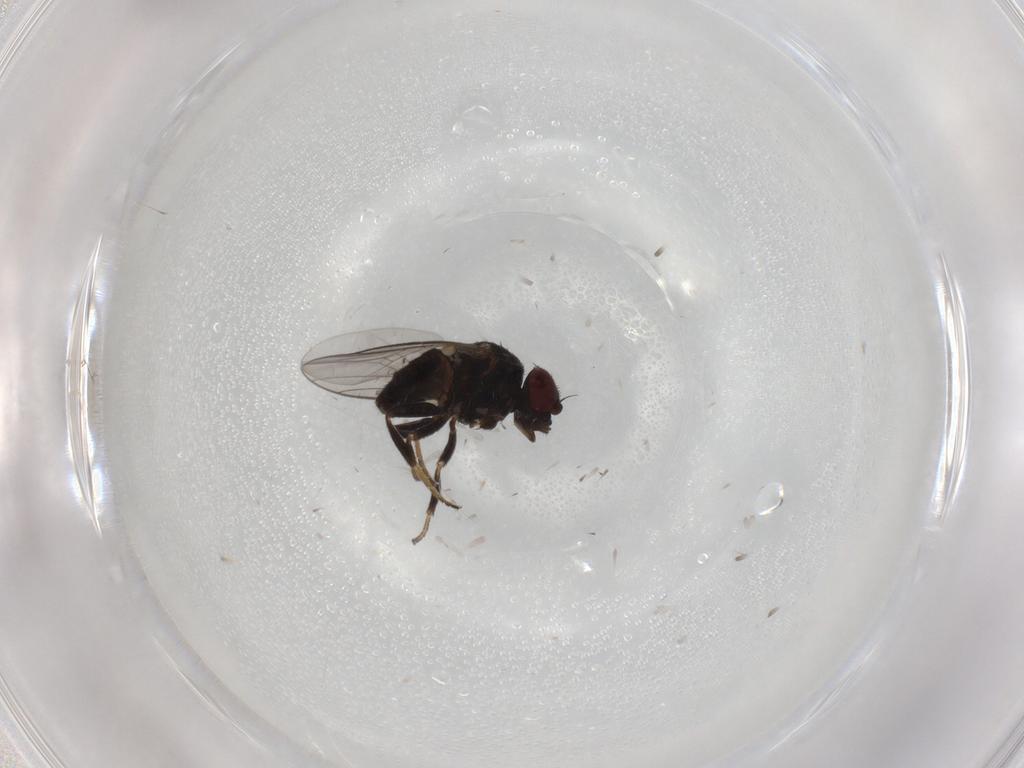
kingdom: Animalia
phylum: Arthropoda
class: Insecta
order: Diptera
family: Chloropidae
